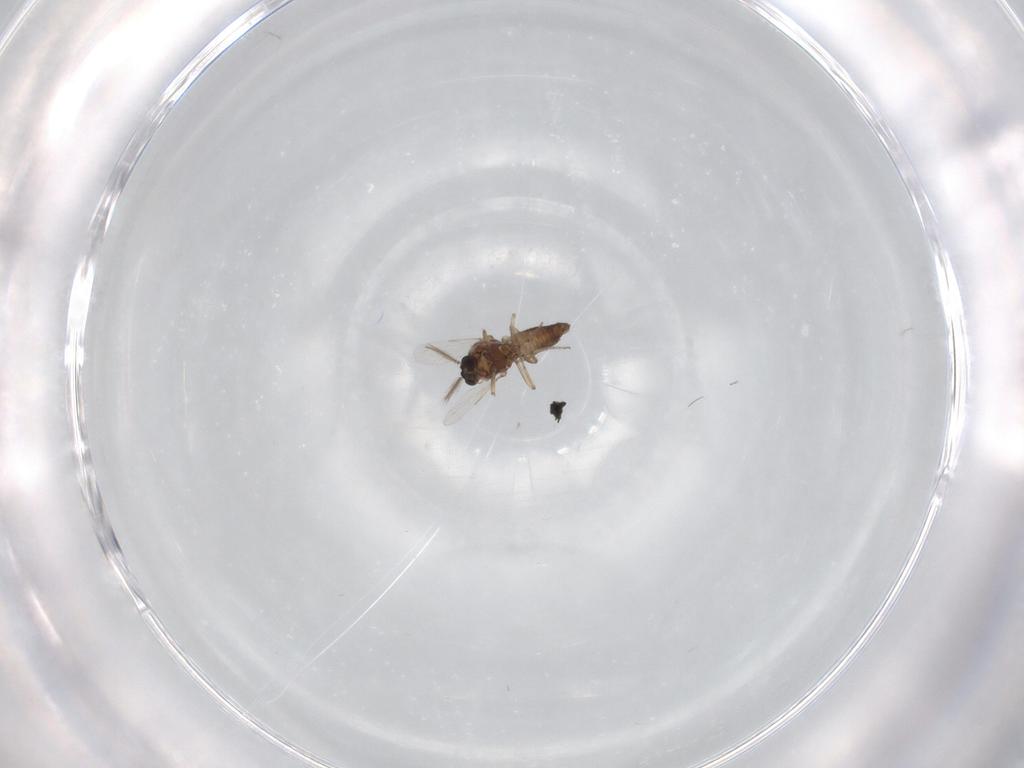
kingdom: Animalia
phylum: Arthropoda
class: Insecta
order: Diptera
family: Ceratopogonidae
